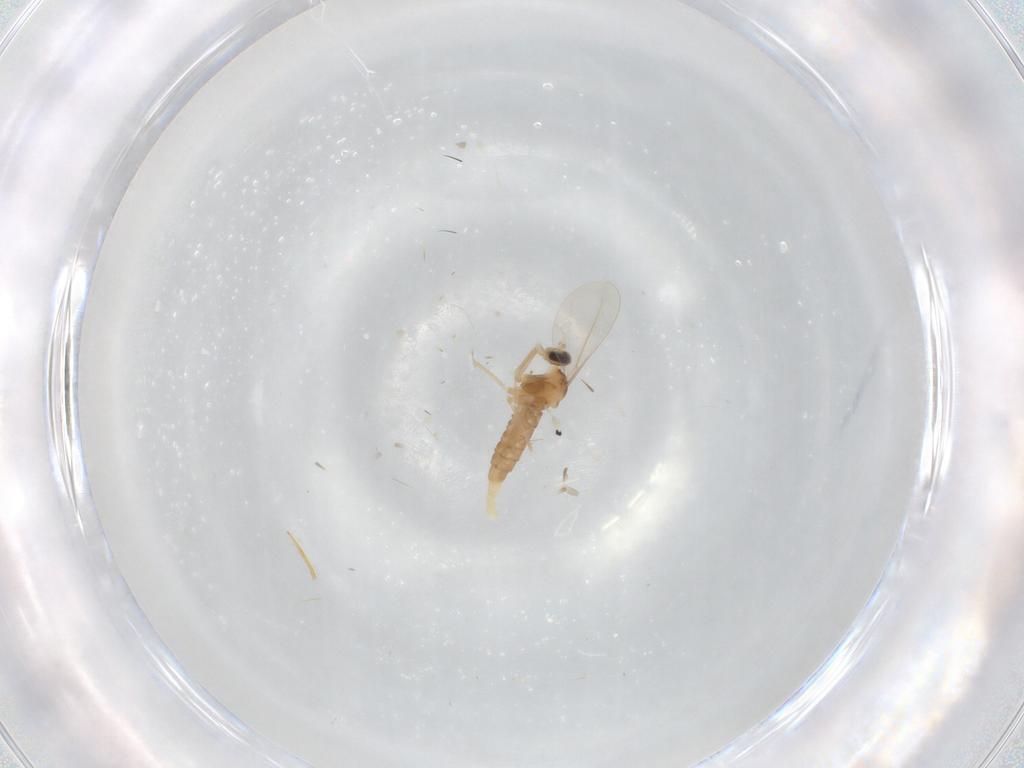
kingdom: Animalia
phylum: Arthropoda
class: Insecta
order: Diptera
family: Cecidomyiidae
